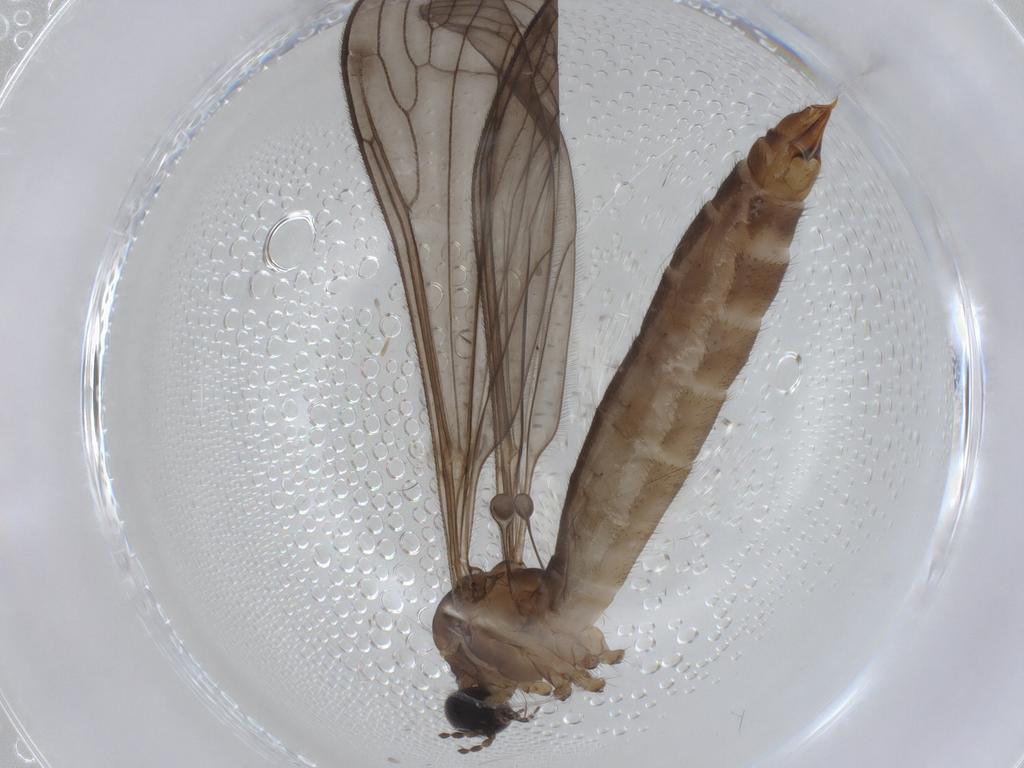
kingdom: Animalia
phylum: Arthropoda
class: Insecta
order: Diptera
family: Limoniidae
